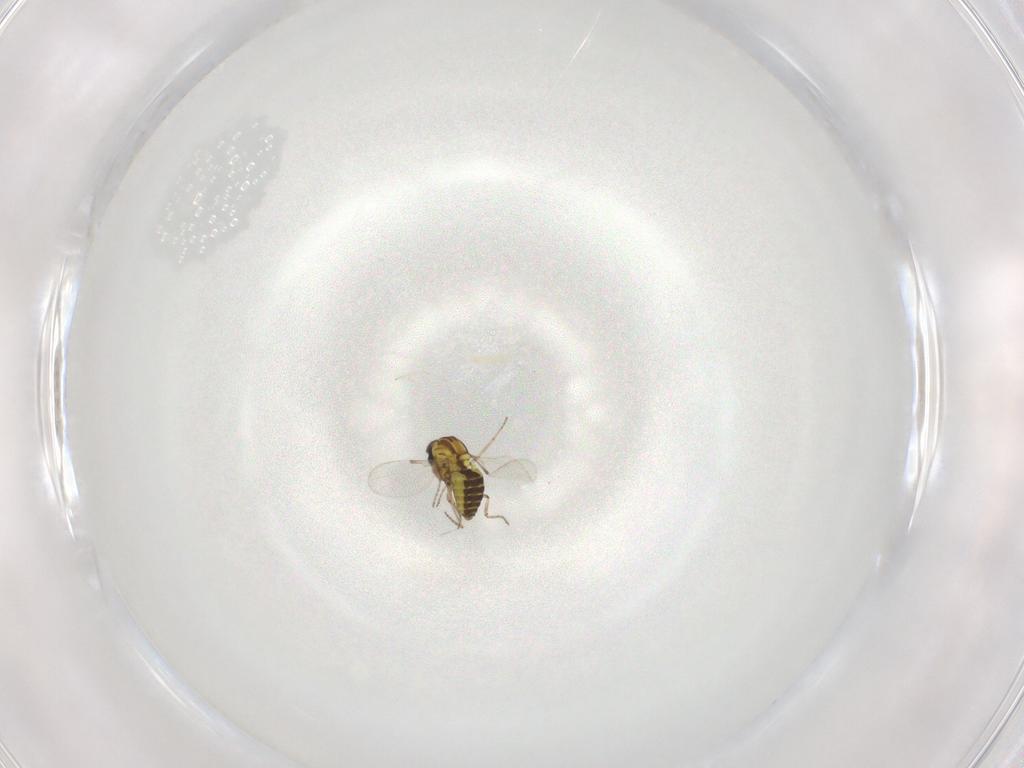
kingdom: Animalia
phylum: Arthropoda
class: Insecta
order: Diptera
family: Ceratopogonidae
